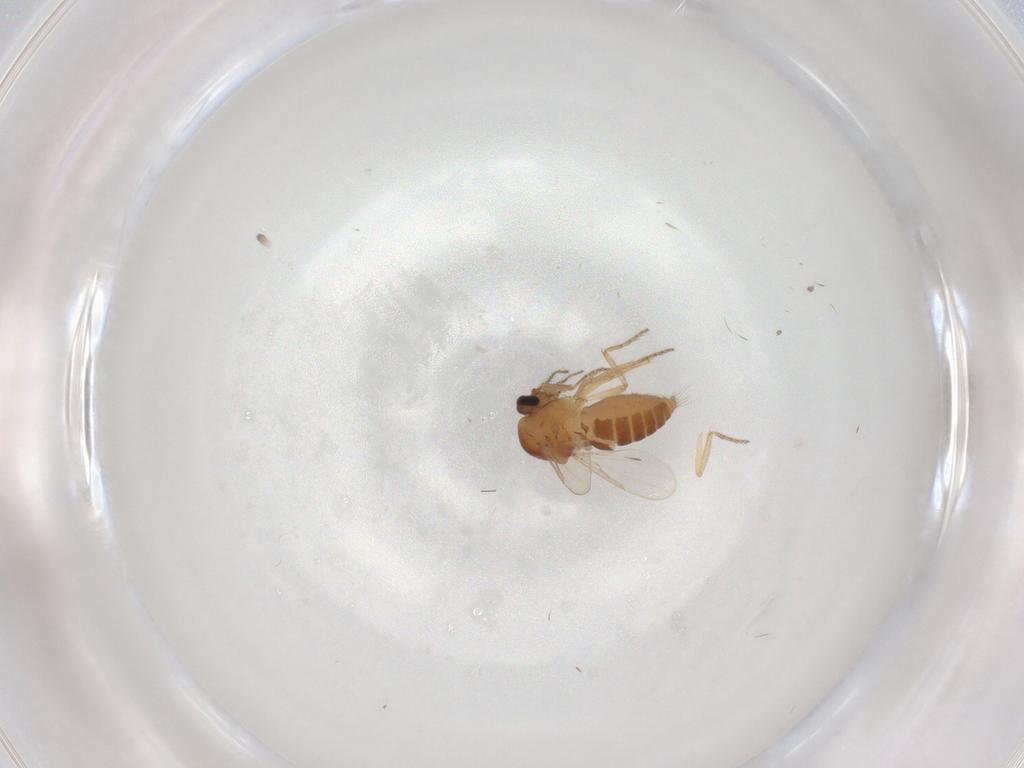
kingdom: Animalia
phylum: Arthropoda
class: Insecta
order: Diptera
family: Ceratopogonidae
